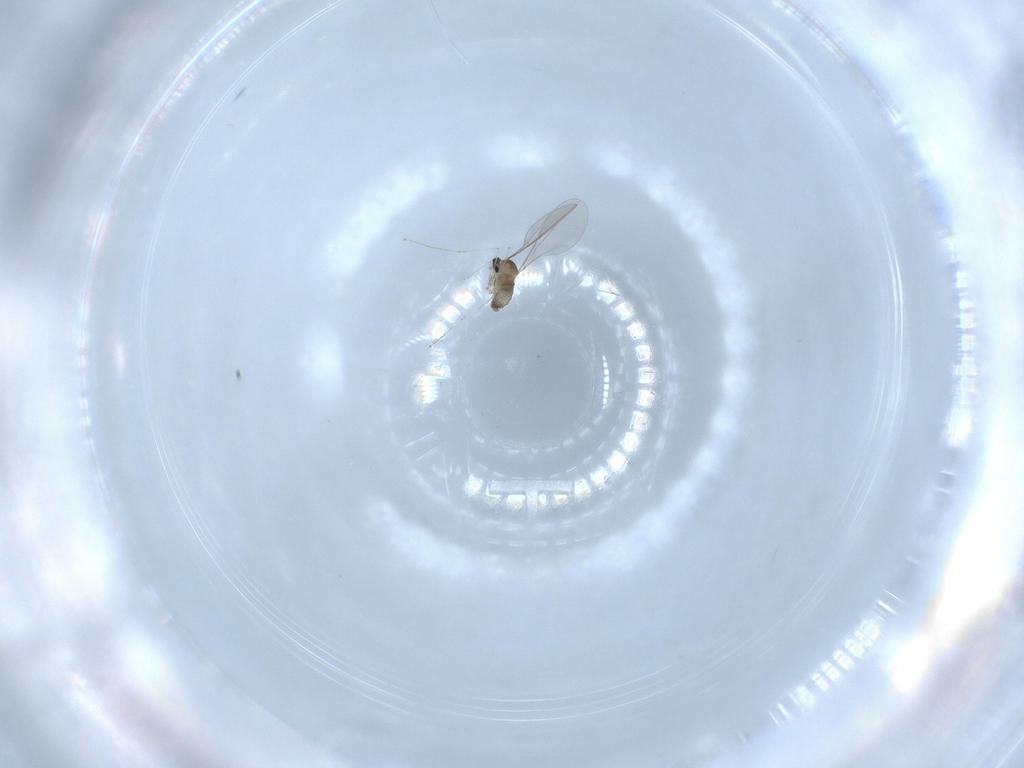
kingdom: Animalia
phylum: Arthropoda
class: Insecta
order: Diptera
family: Cecidomyiidae
